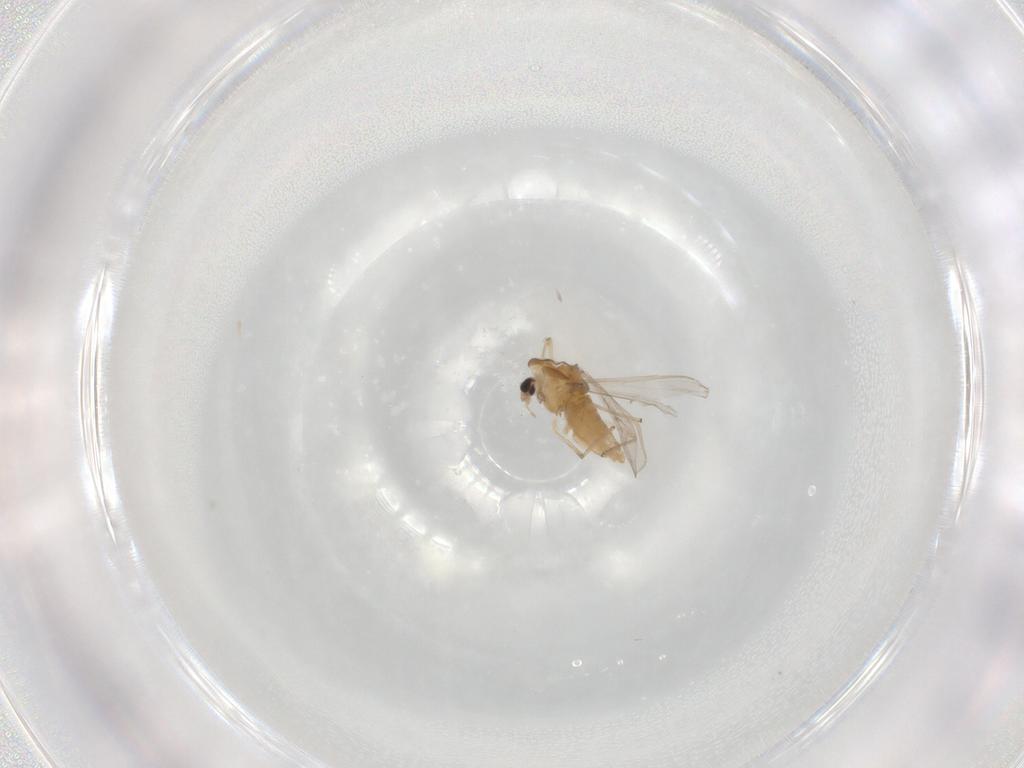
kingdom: Animalia
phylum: Arthropoda
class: Insecta
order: Diptera
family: Chironomidae
